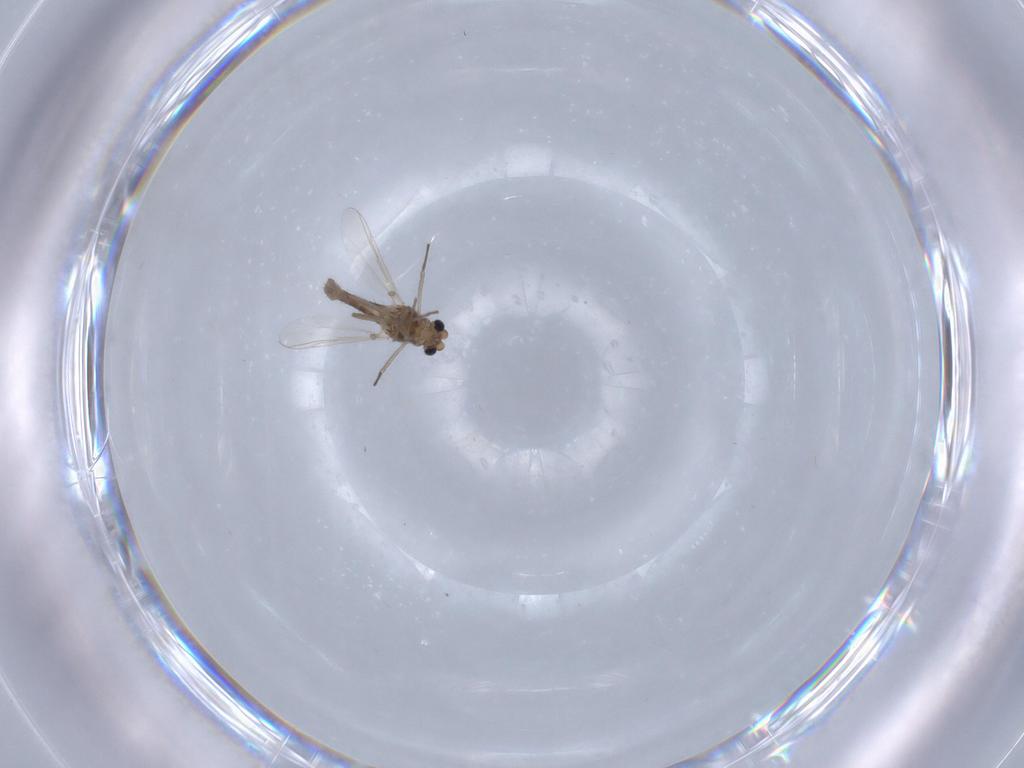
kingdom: Animalia
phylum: Arthropoda
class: Insecta
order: Diptera
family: Chironomidae
